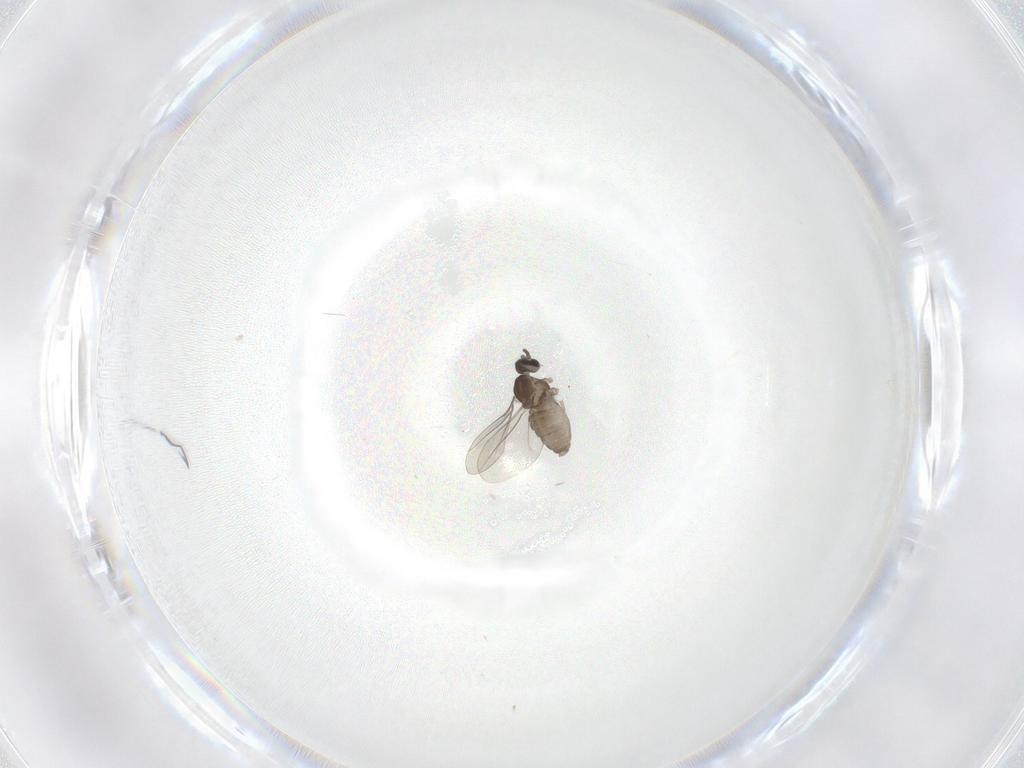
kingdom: Animalia
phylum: Arthropoda
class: Insecta
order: Diptera
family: Cecidomyiidae
